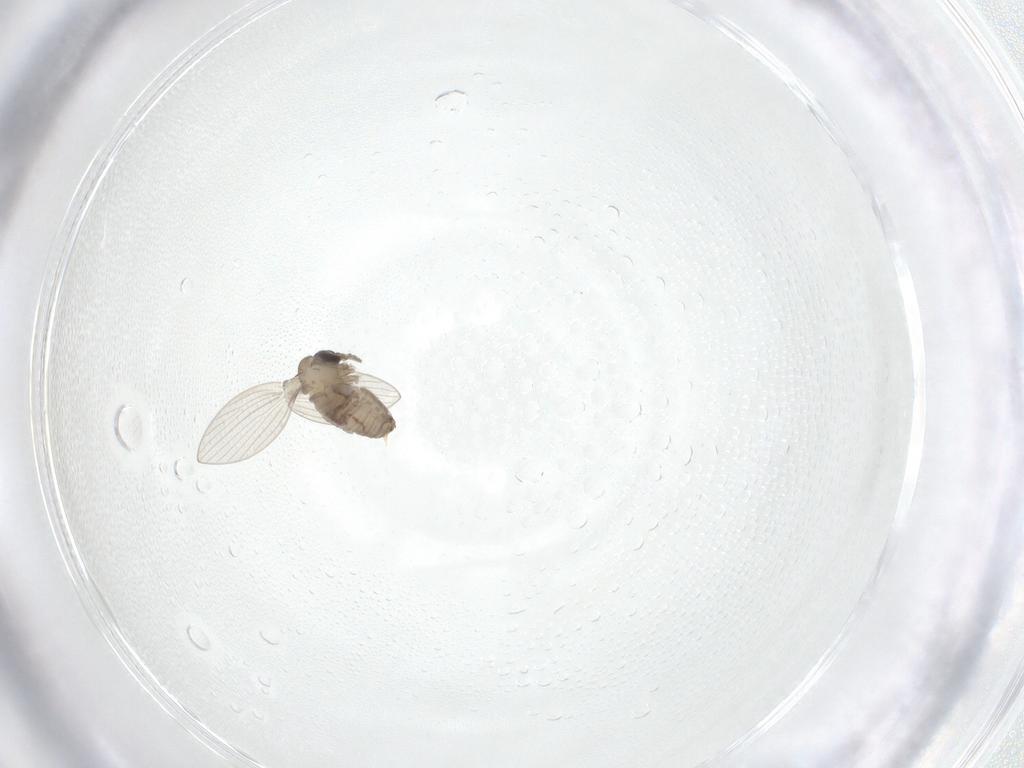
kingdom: Animalia
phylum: Arthropoda
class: Insecta
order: Diptera
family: Psychodidae
